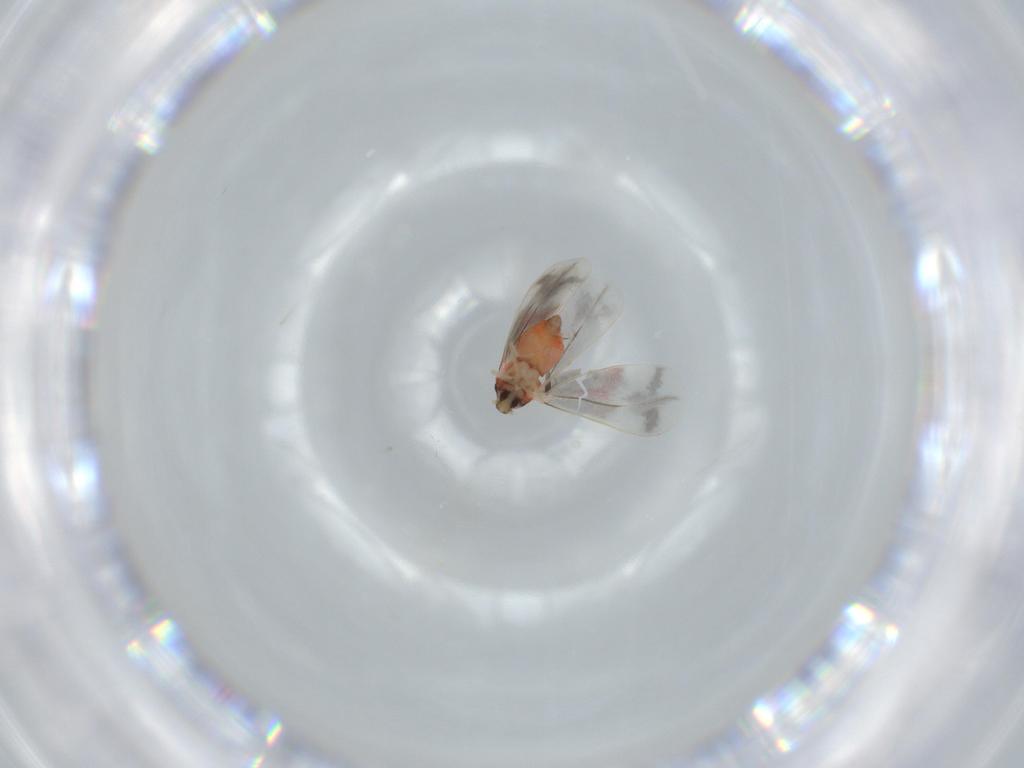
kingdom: Animalia
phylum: Arthropoda
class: Insecta
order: Hemiptera
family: Aleyrodidae
